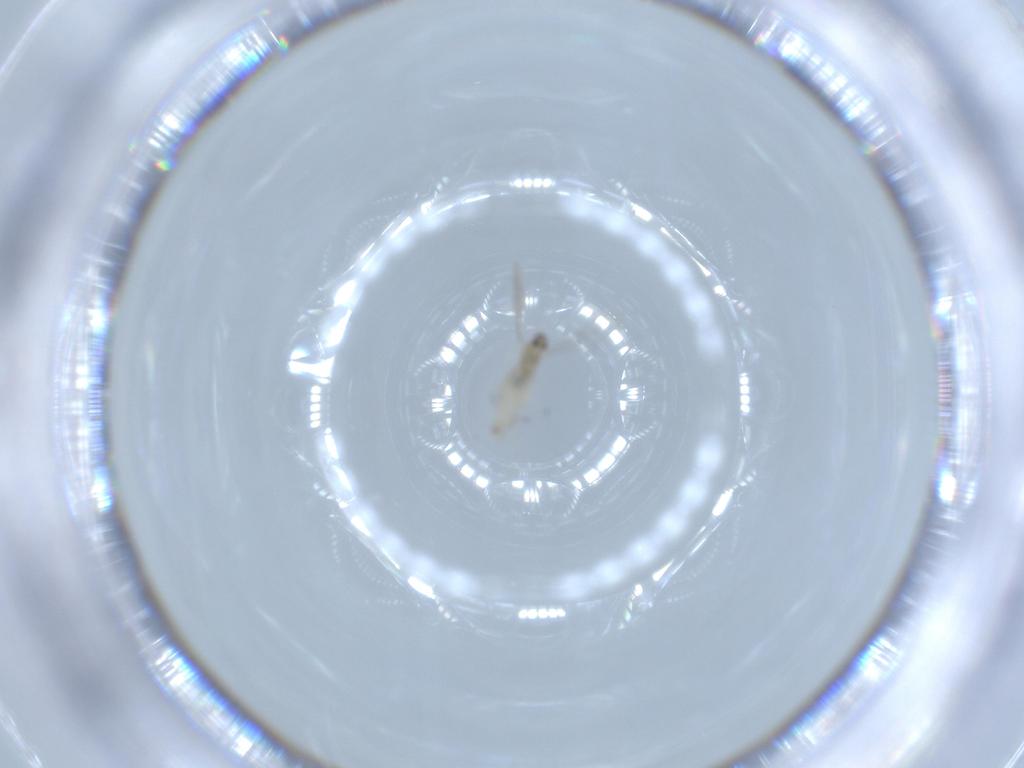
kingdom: Animalia
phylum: Arthropoda
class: Insecta
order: Diptera
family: Cecidomyiidae
